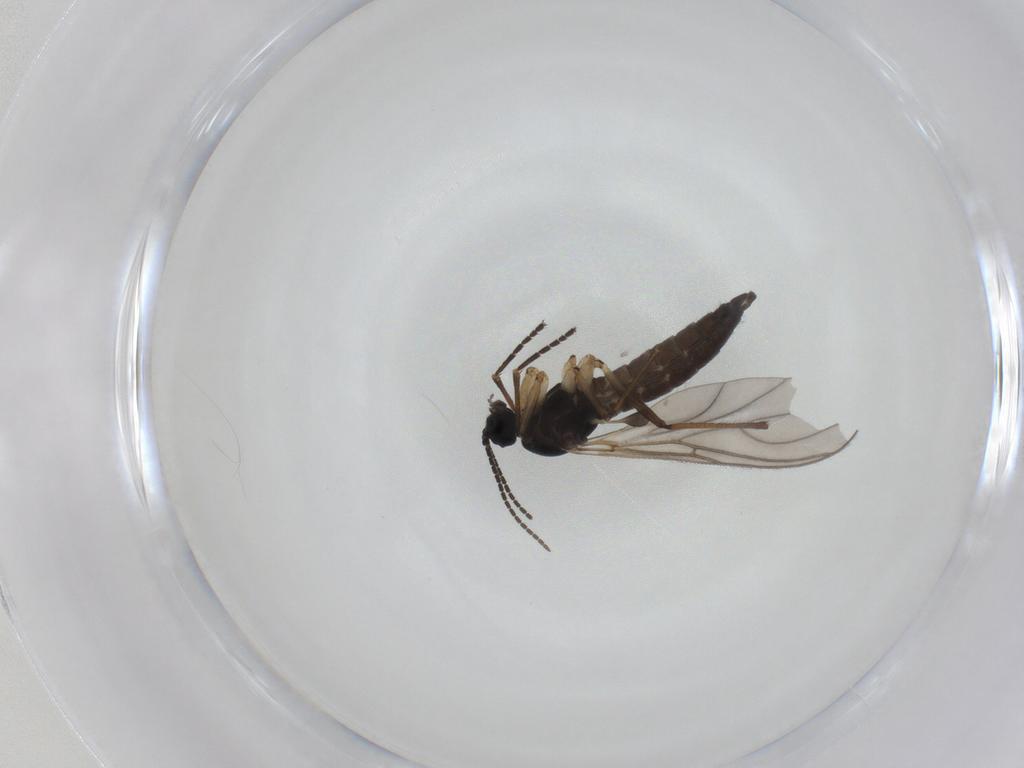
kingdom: Animalia
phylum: Arthropoda
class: Insecta
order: Diptera
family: Sciaridae
